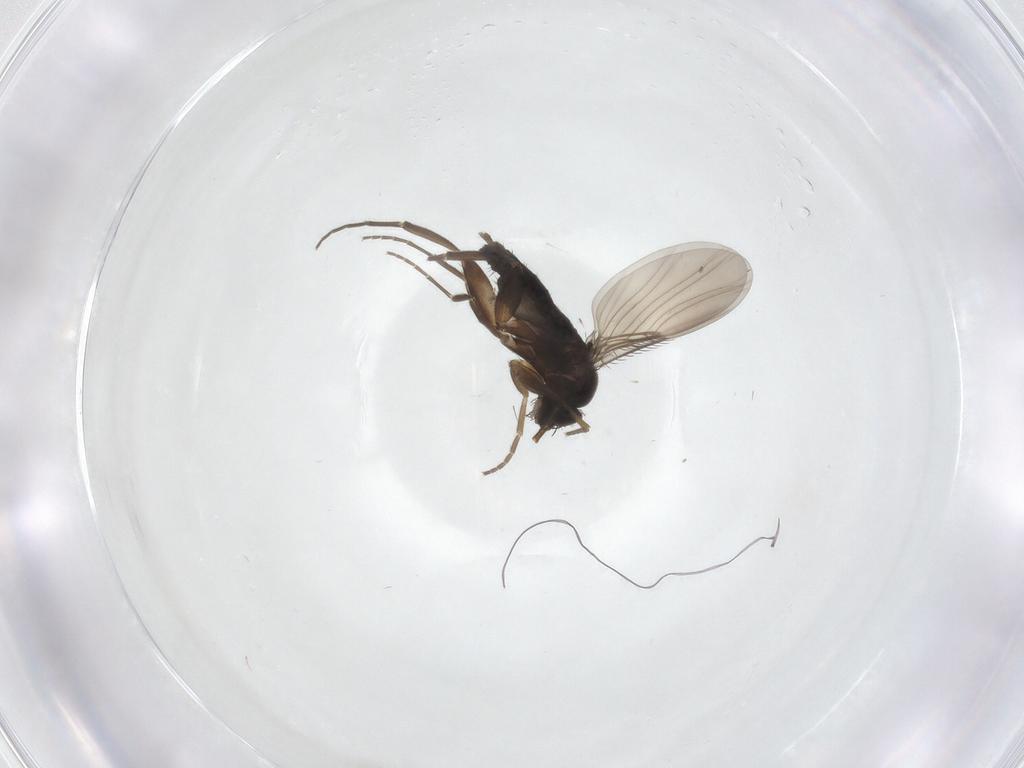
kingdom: Animalia
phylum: Arthropoda
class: Insecta
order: Diptera
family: Phoridae
